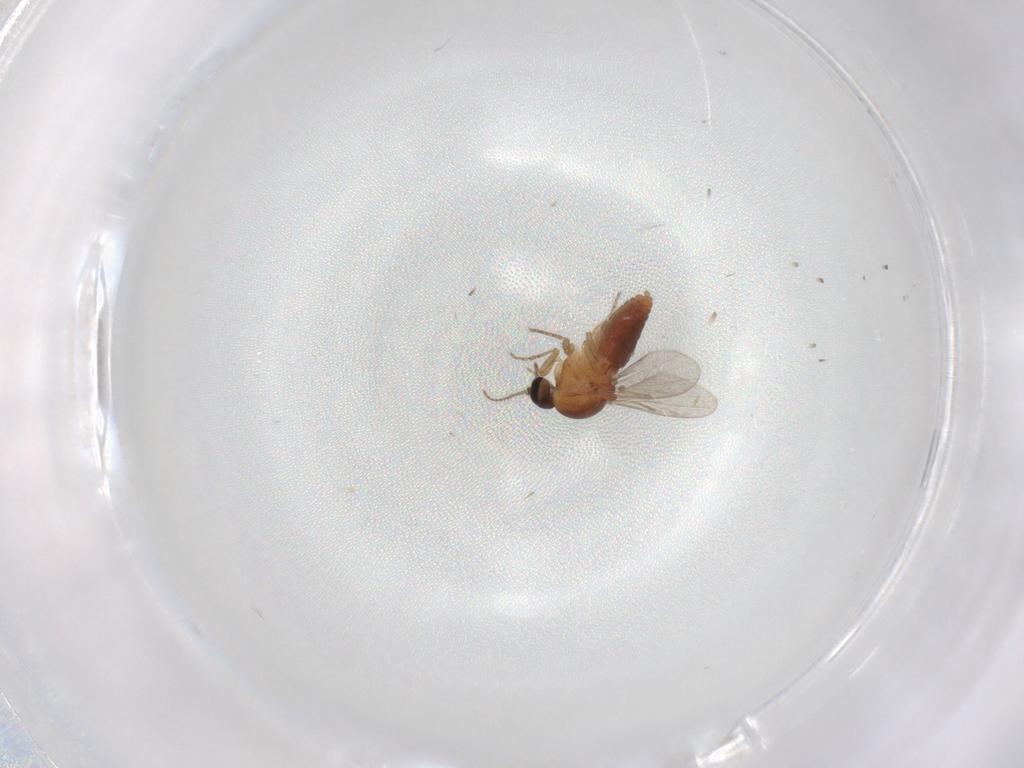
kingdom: Animalia
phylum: Arthropoda
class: Insecta
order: Diptera
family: Ceratopogonidae
